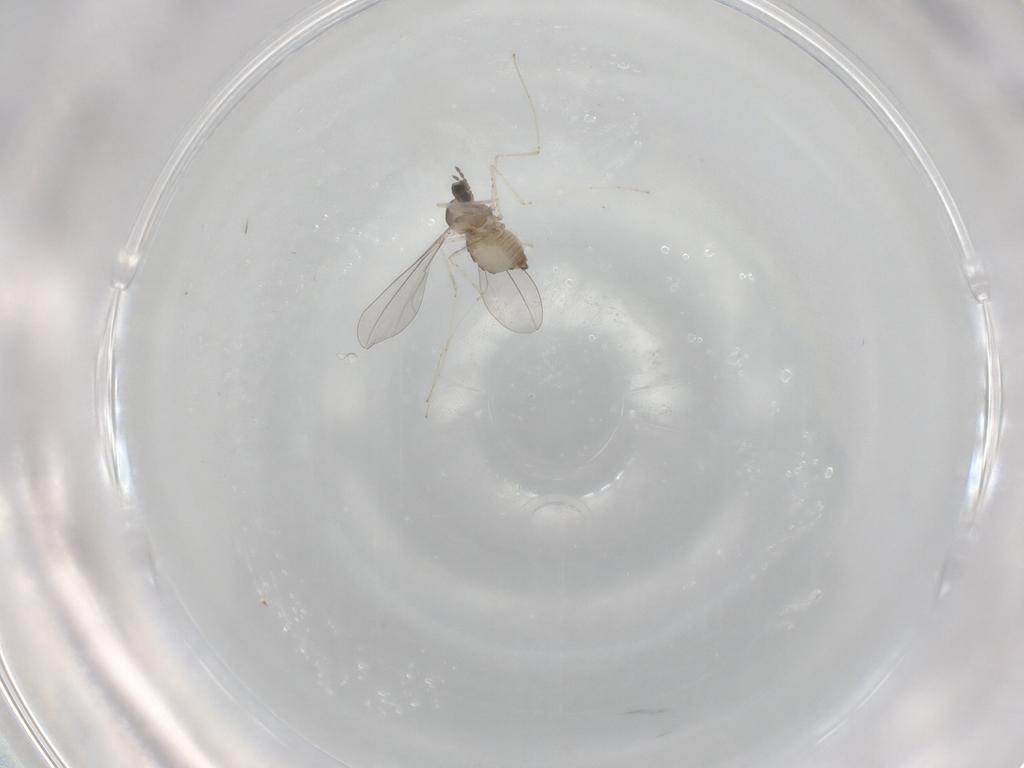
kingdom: Animalia
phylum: Arthropoda
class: Insecta
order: Diptera
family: Cecidomyiidae
